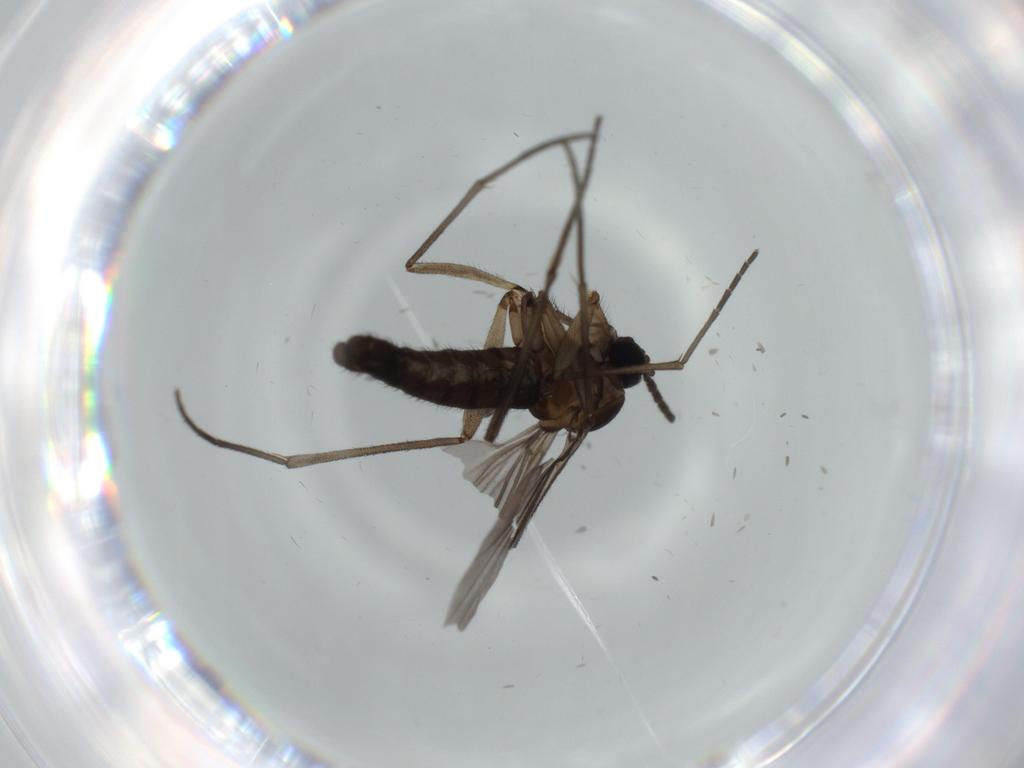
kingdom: Animalia
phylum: Arthropoda
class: Insecta
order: Diptera
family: Sciaridae
